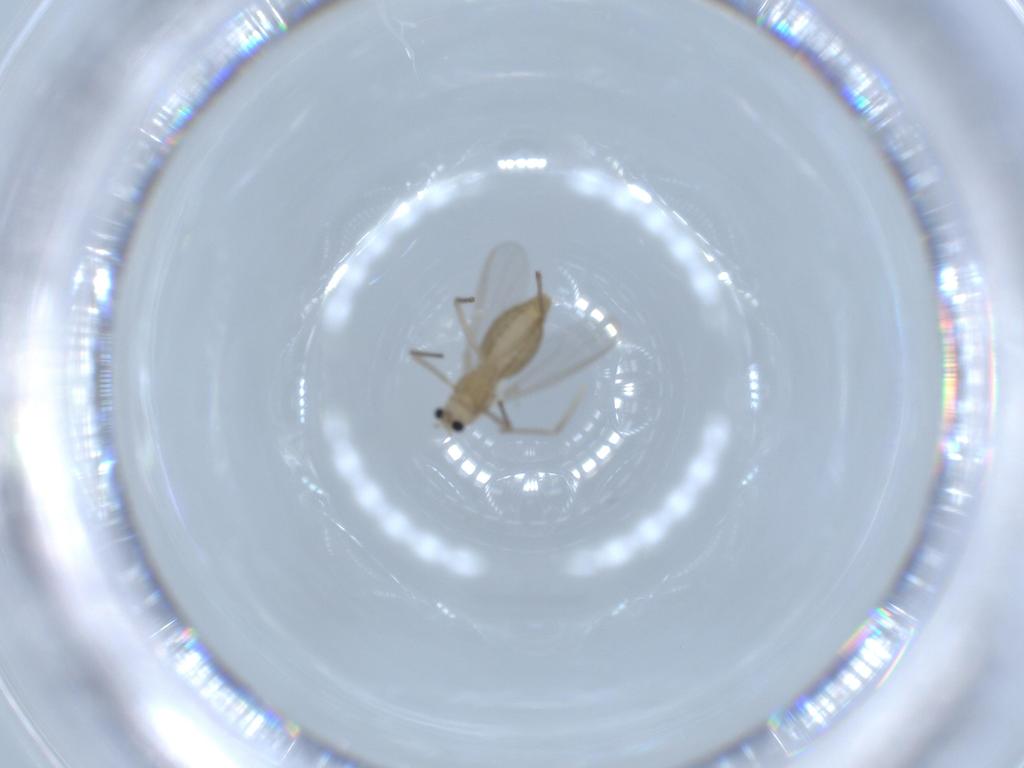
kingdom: Animalia
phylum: Arthropoda
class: Insecta
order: Diptera
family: Chironomidae
